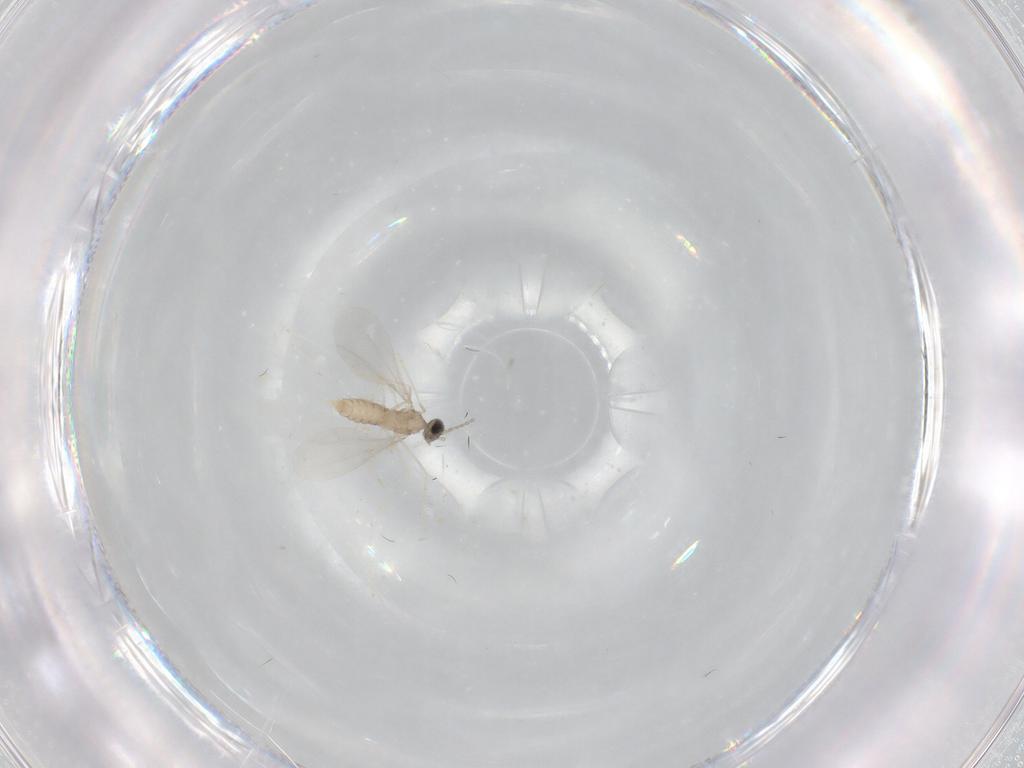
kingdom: Animalia
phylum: Arthropoda
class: Insecta
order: Diptera
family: Cecidomyiidae
